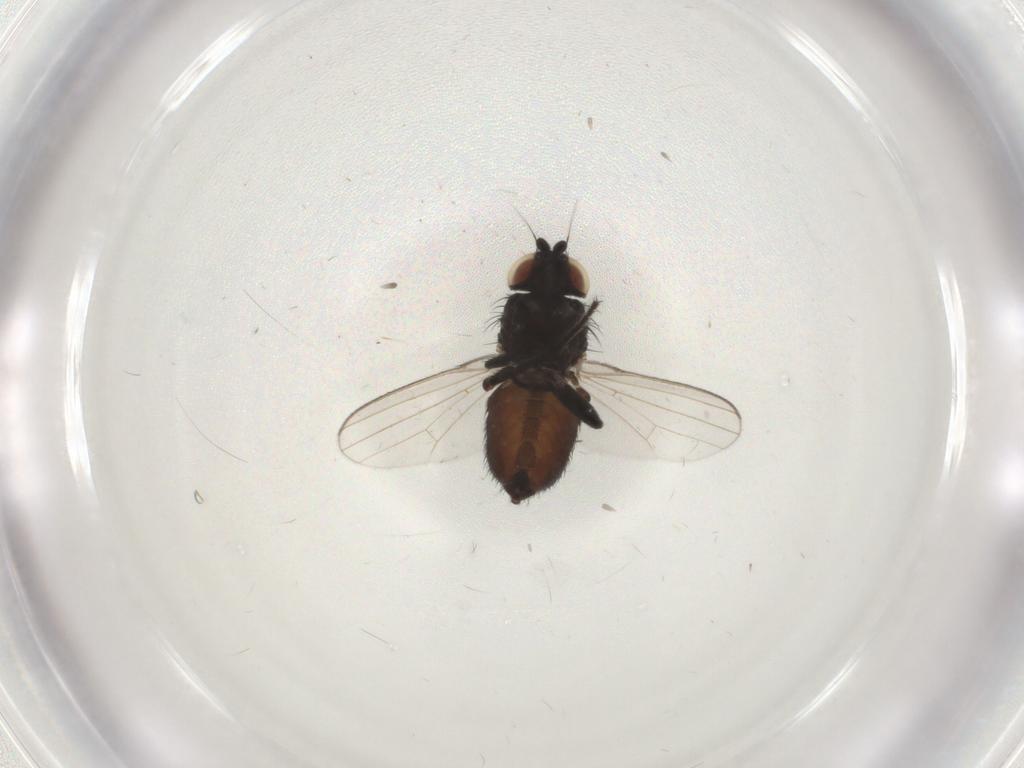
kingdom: Animalia
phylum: Arthropoda
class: Insecta
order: Diptera
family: Milichiidae
